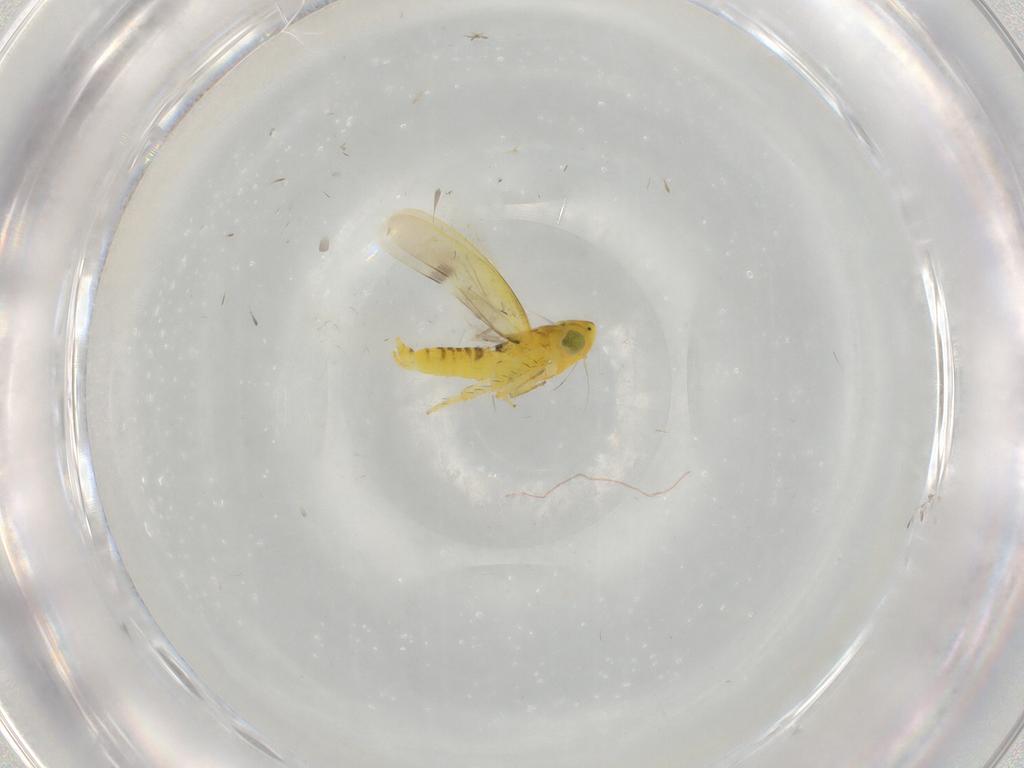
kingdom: Animalia
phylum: Arthropoda
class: Insecta
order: Hemiptera
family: Cicadellidae
